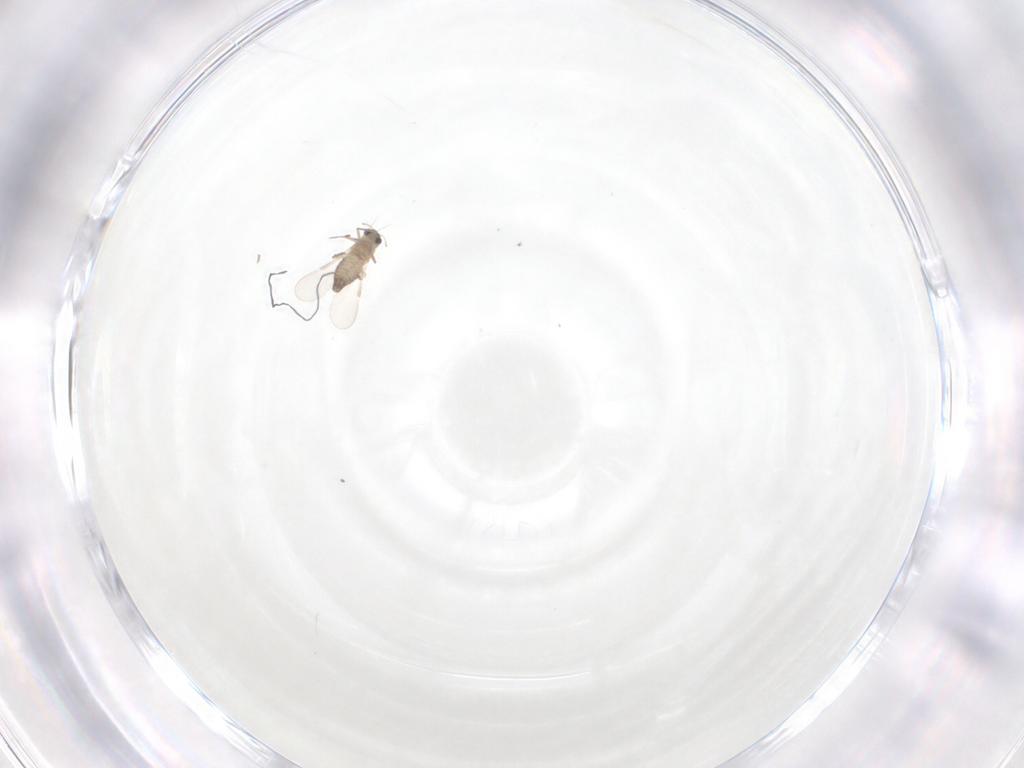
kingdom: Animalia
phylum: Arthropoda
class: Insecta
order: Diptera
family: Chironomidae
